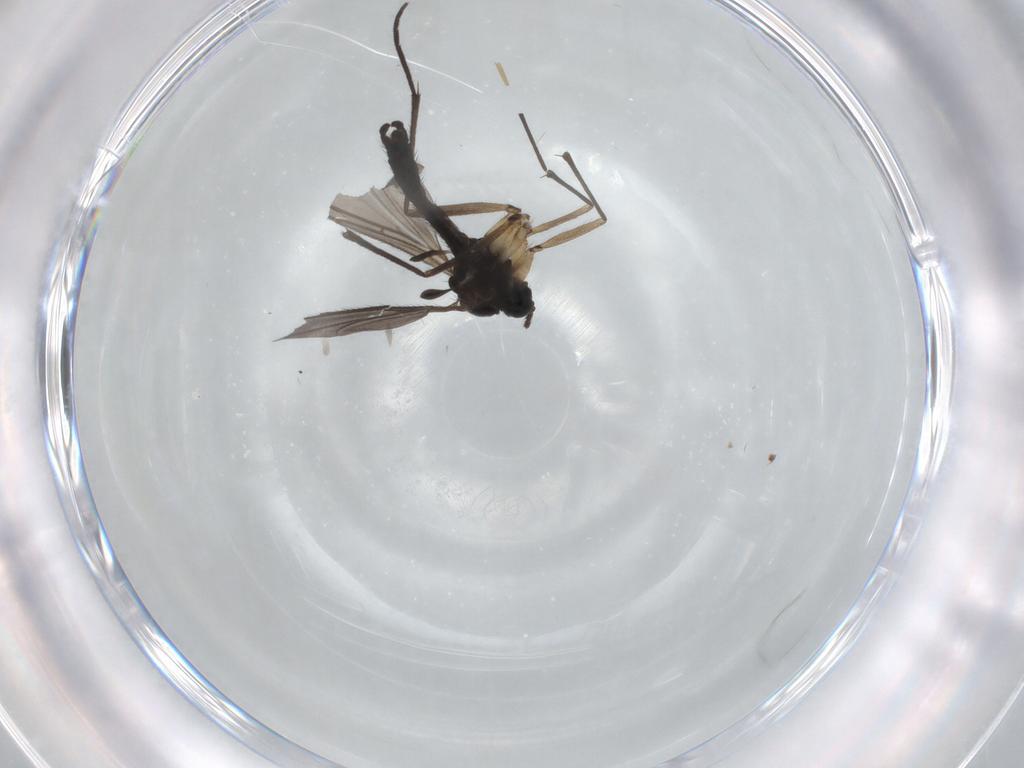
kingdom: Animalia
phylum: Arthropoda
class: Insecta
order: Diptera
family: Sciaridae
